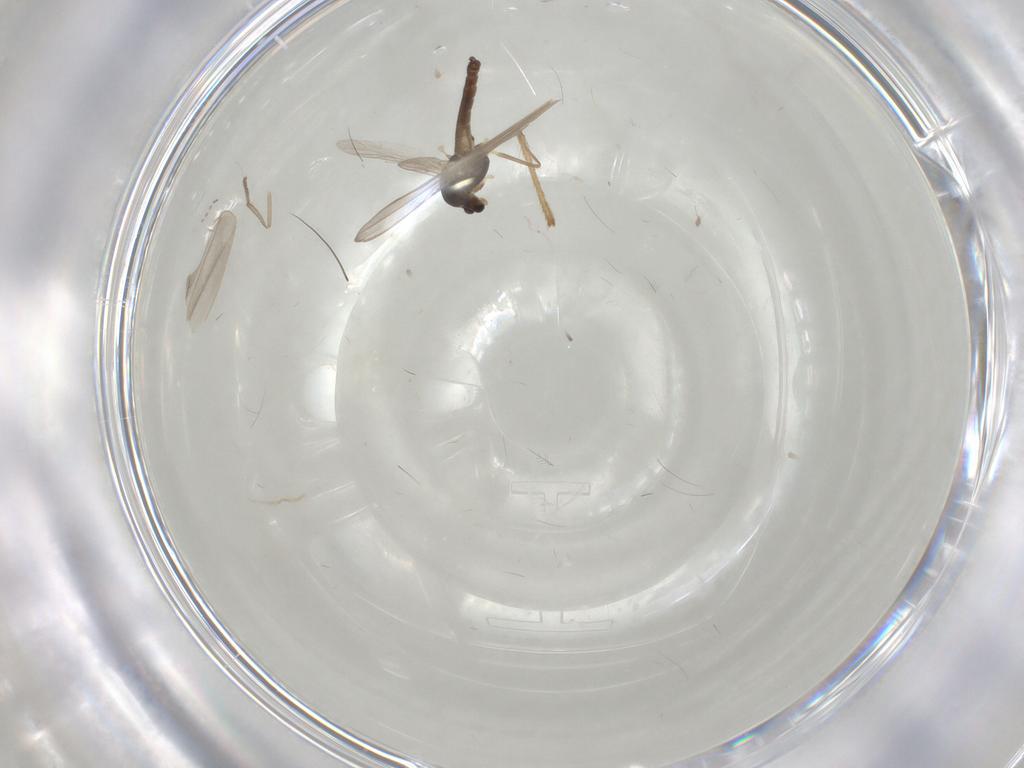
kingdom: Animalia
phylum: Arthropoda
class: Insecta
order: Diptera
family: Chironomidae
